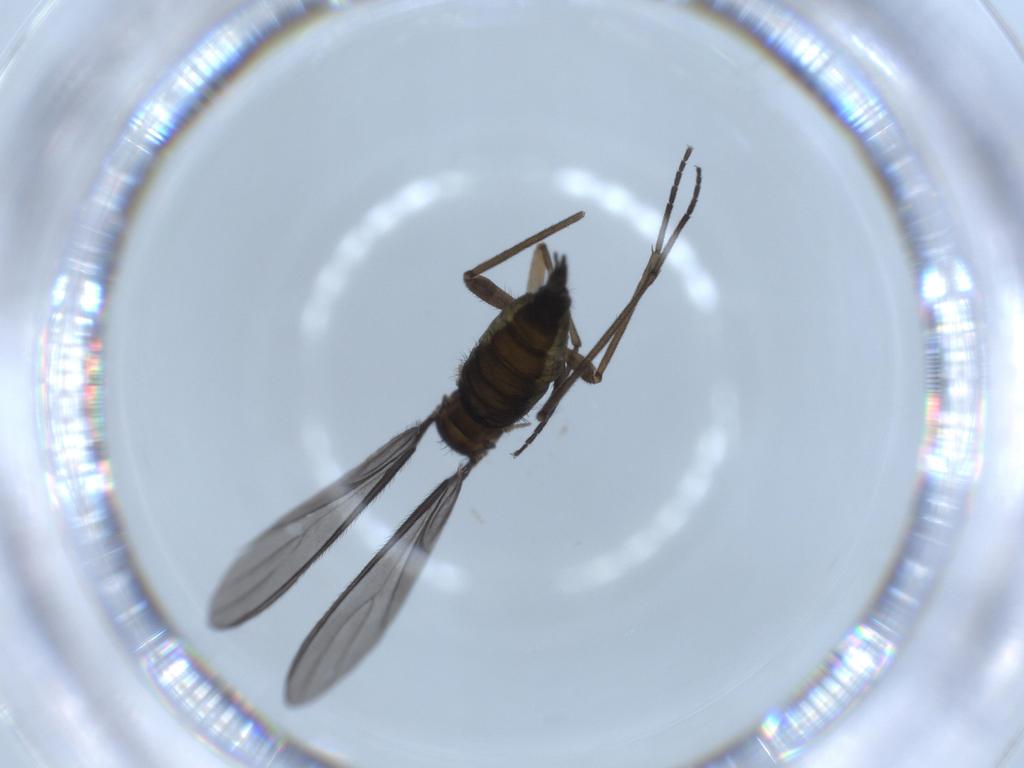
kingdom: Animalia
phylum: Arthropoda
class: Insecta
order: Diptera
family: Sciaridae
